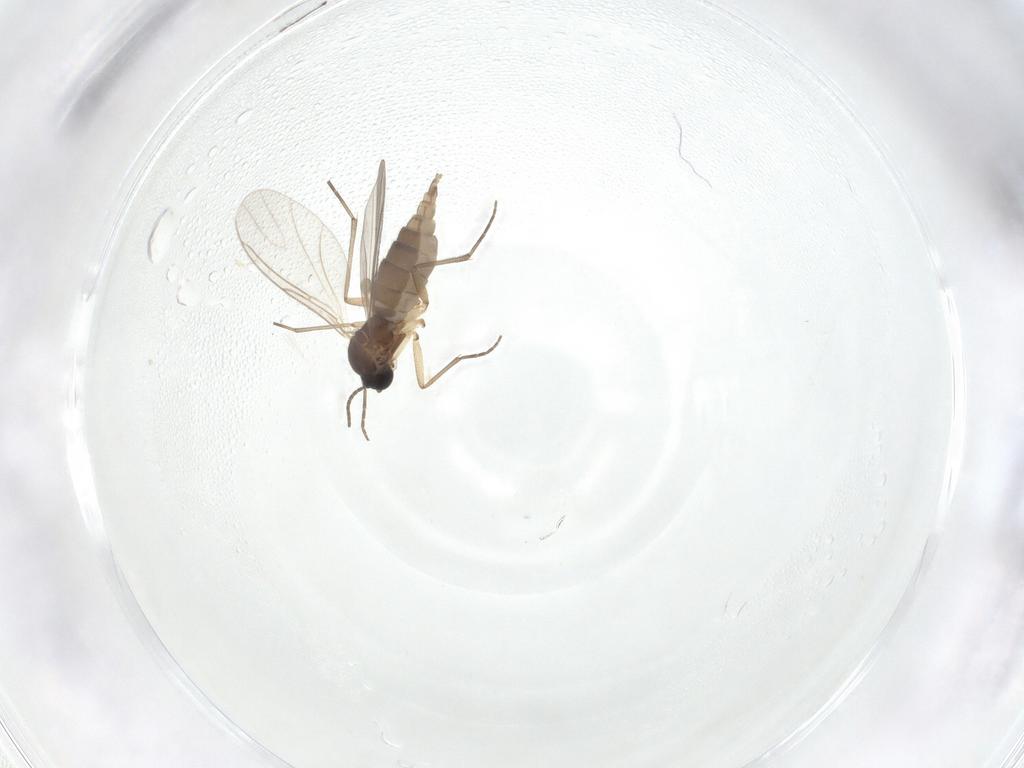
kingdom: Animalia
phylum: Arthropoda
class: Insecta
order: Diptera
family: Sciaridae
